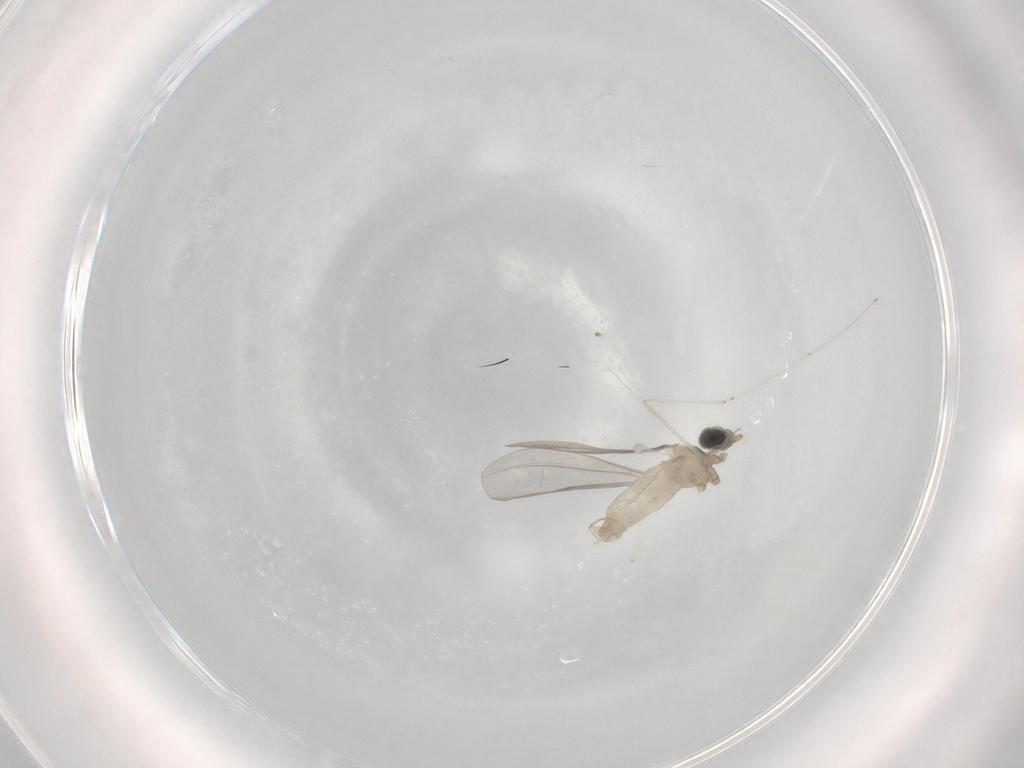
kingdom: Animalia
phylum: Arthropoda
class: Insecta
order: Diptera
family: Cecidomyiidae
